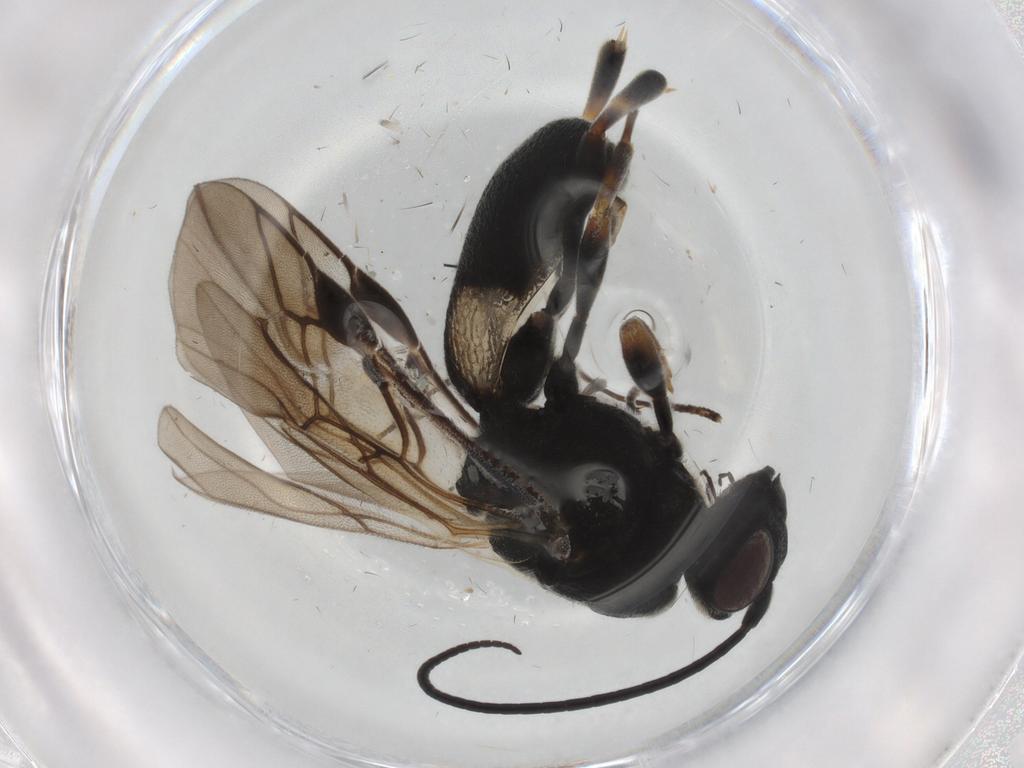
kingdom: Animalia
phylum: Arthropoda
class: Insecta
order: Hymenoptera
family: Braconidae
